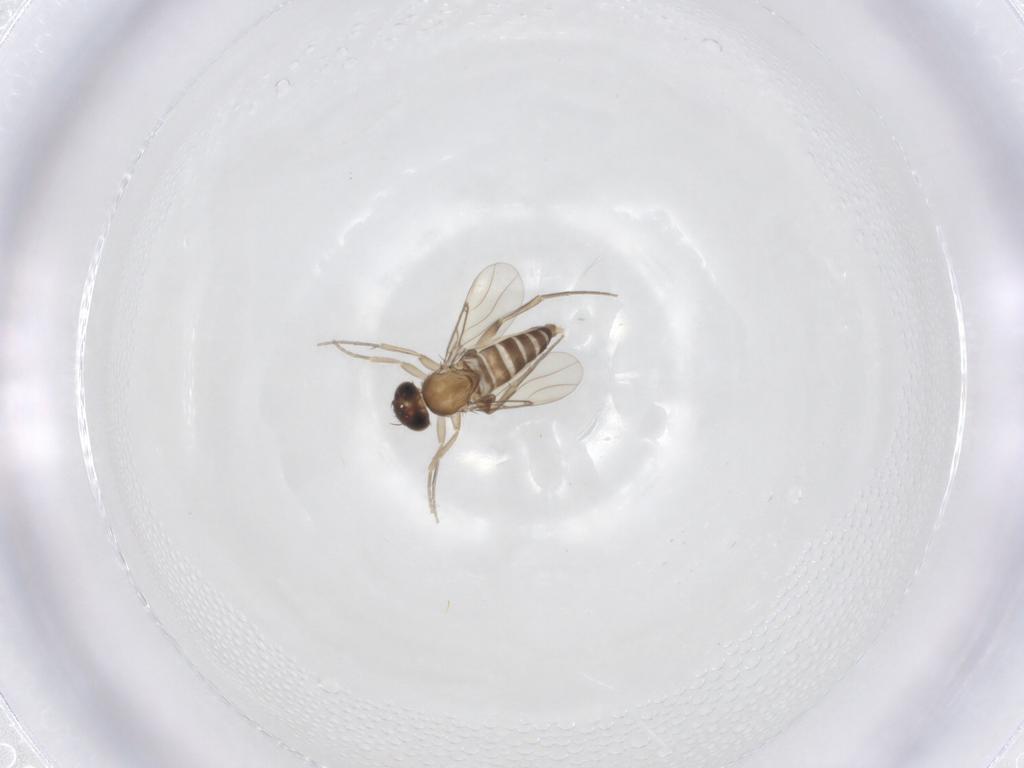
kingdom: Animalia
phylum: Arthropoda
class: Insecta
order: Diptera
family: Phoridae
